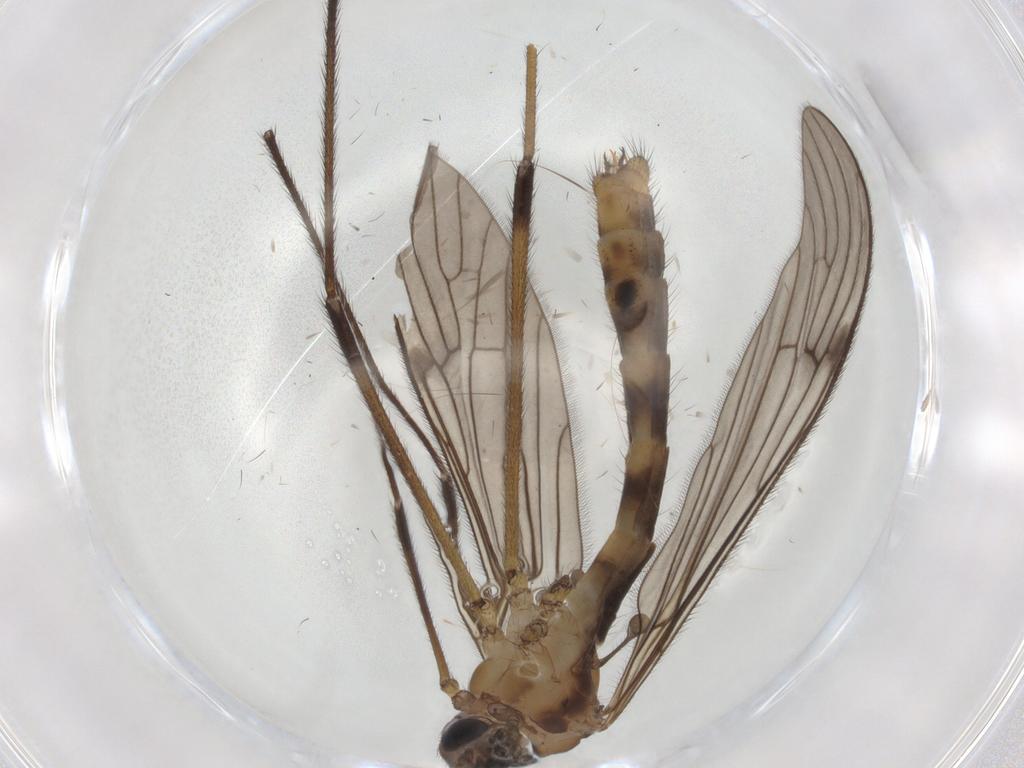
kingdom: Animalia
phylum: Arthropoda
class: Insecta
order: Diptera
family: Limoniidae
